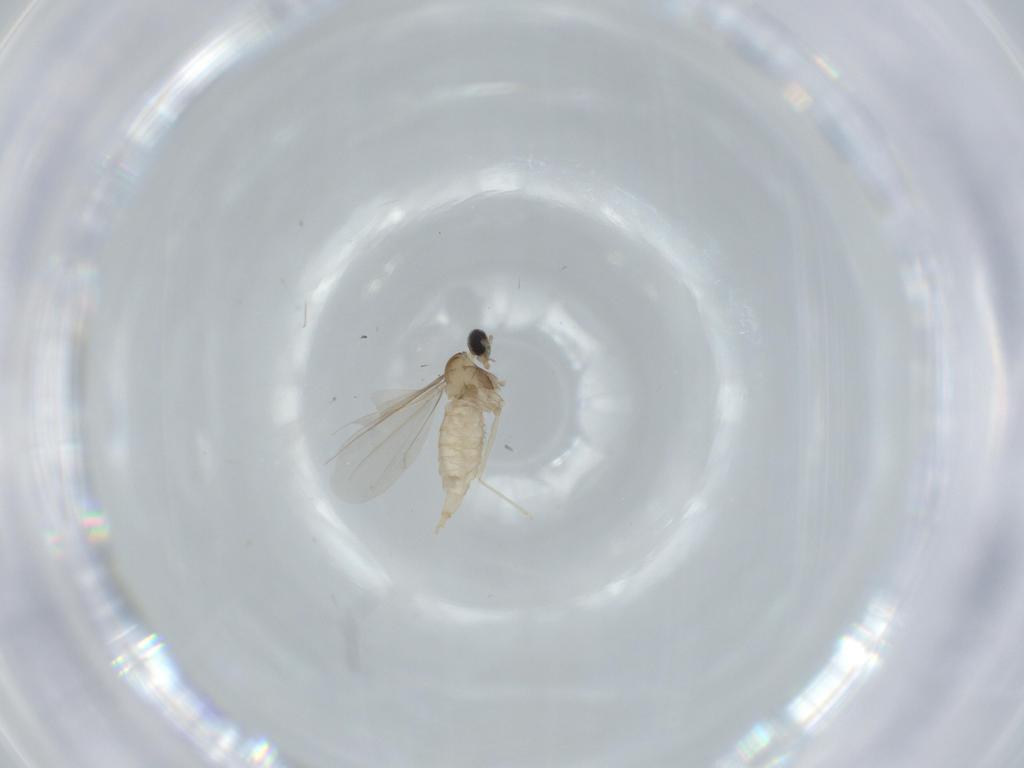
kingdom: Animalia
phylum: Arthropoda
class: Insecta
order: Diptera
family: Cecidomyiidae
